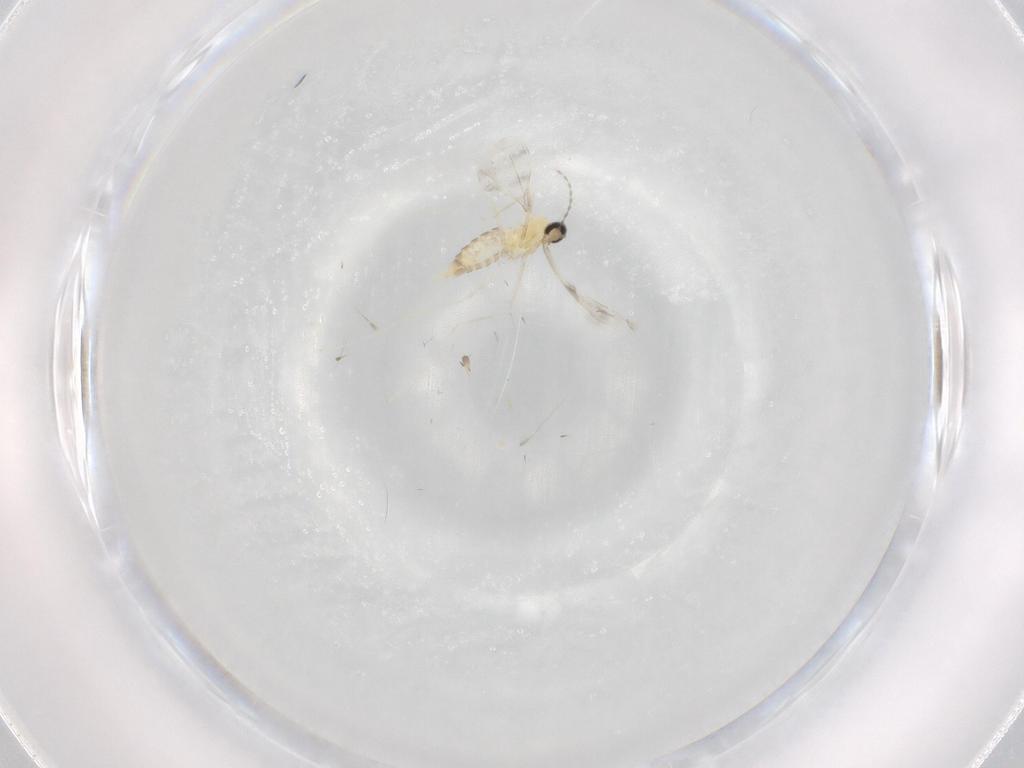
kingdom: Animalia
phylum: Arthropoda
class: Insecta
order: Diptera
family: Cecidomyiidae
